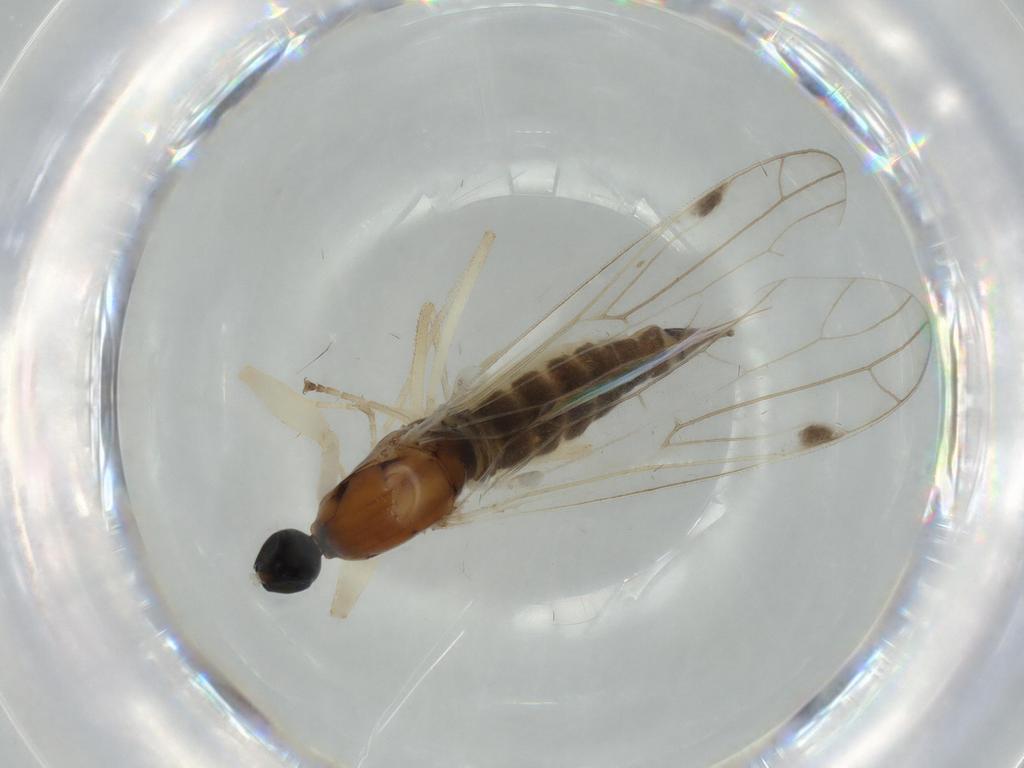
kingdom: Animalia
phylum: Arthropoda
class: Insecta
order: Diptera
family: Chironomidae
